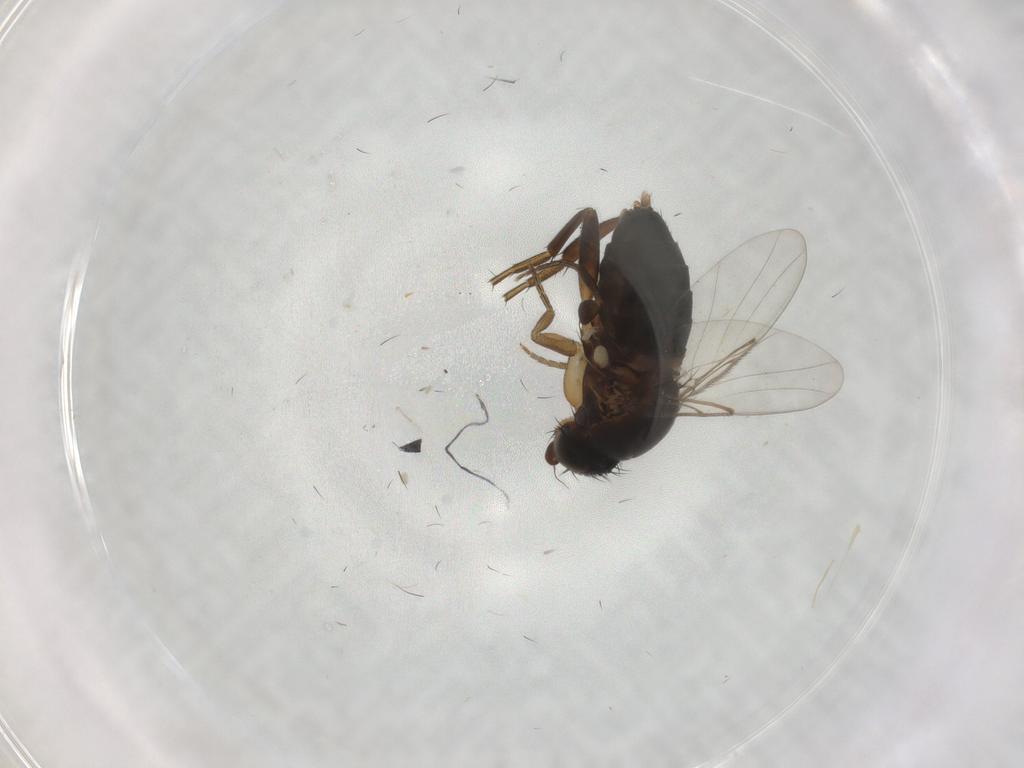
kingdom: Animalia
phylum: Arthropoda
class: Insecta
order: Diptera
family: Phoridae
